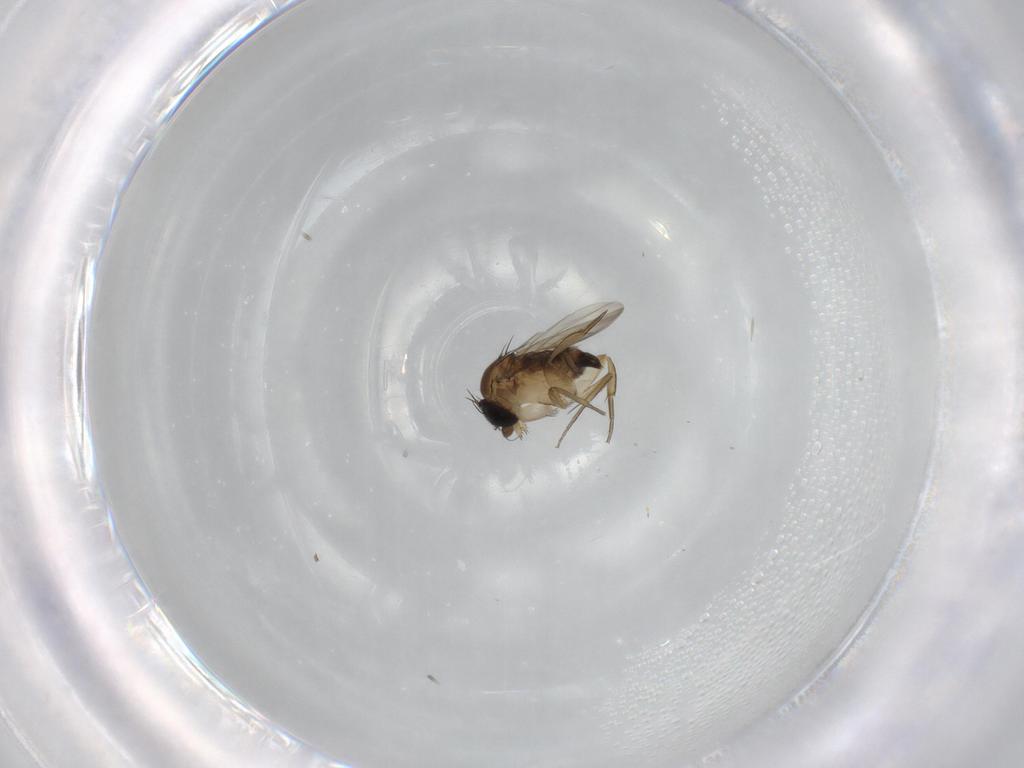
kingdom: Animalia
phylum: Arthropoda
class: Insecta
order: Diptera
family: Phoridae
